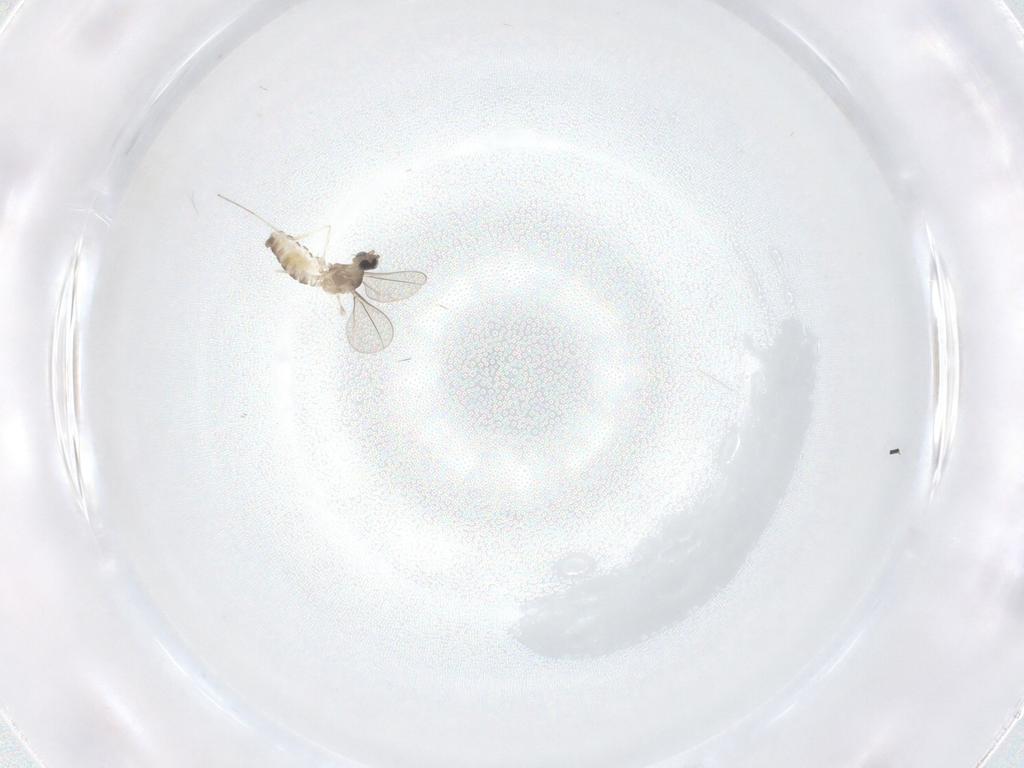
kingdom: Animalia
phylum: Arthropoda
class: Insecta
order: Diptera
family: Cecidomyiidae
